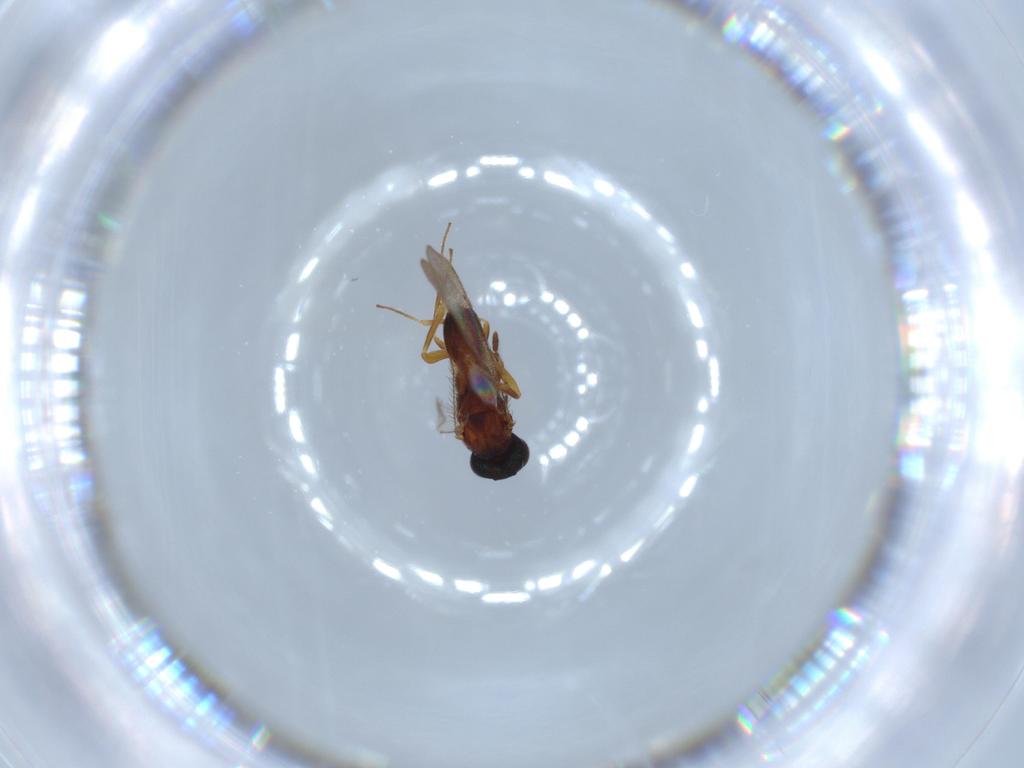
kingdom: Animalia
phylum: Arthropoda
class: Insecta
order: Hymenoptera
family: Trichogrammatidae
